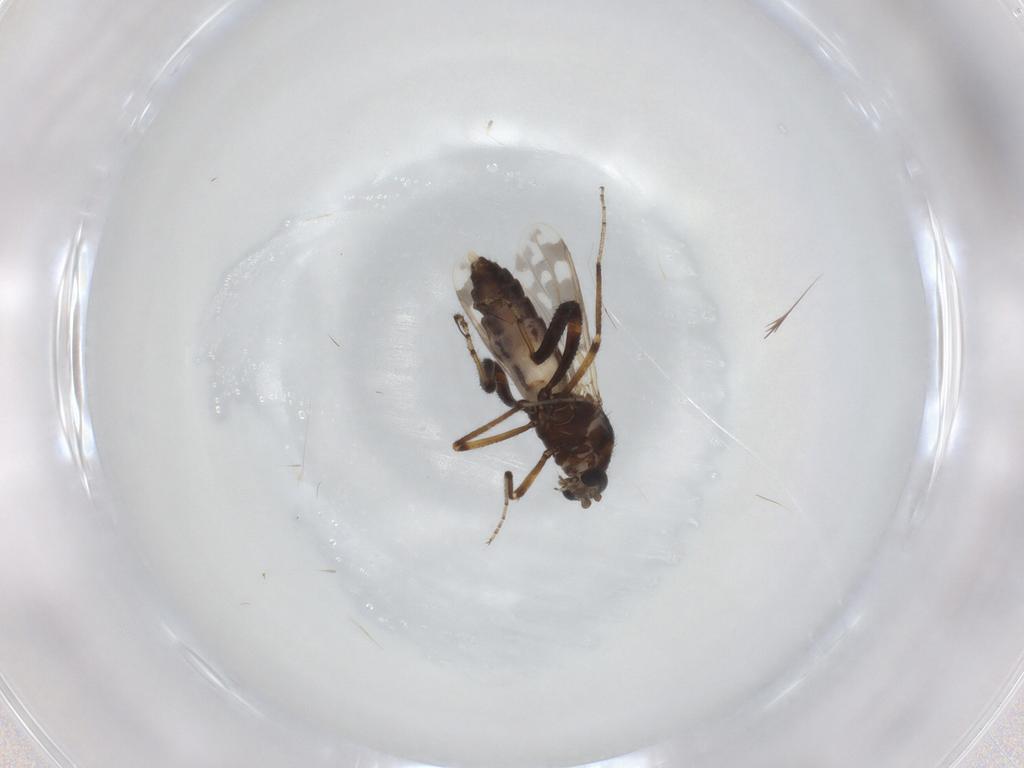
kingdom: Animalia
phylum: Arthropoda
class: Insecta
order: Diptera
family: Ceratopogonidae
